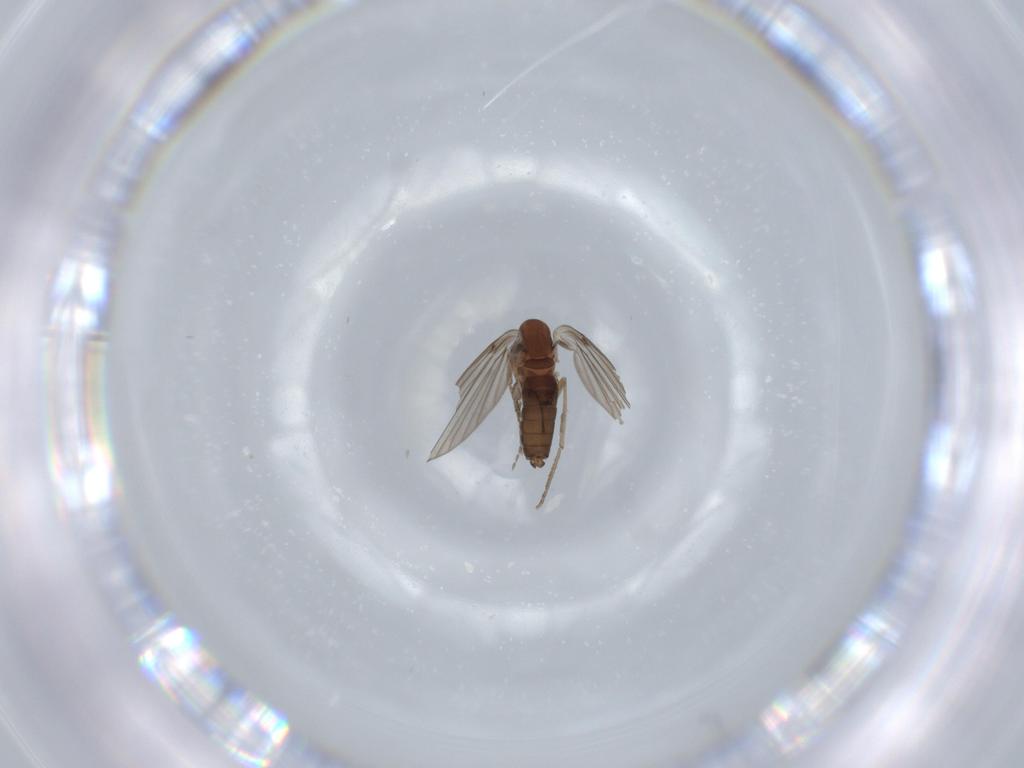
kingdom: Animalia
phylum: Arthropoda
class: Insecta
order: Diptera
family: Psychodidae
